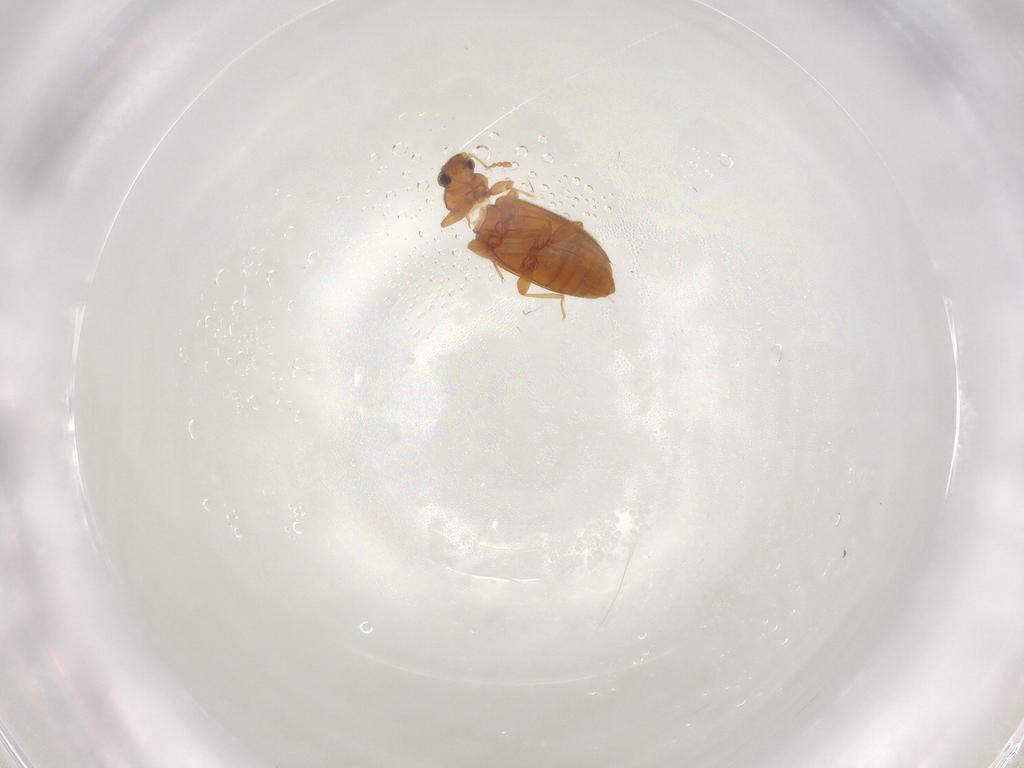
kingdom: Animalia
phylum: Arthropoda
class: Insecta
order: Coleoptera
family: Latridiidae
